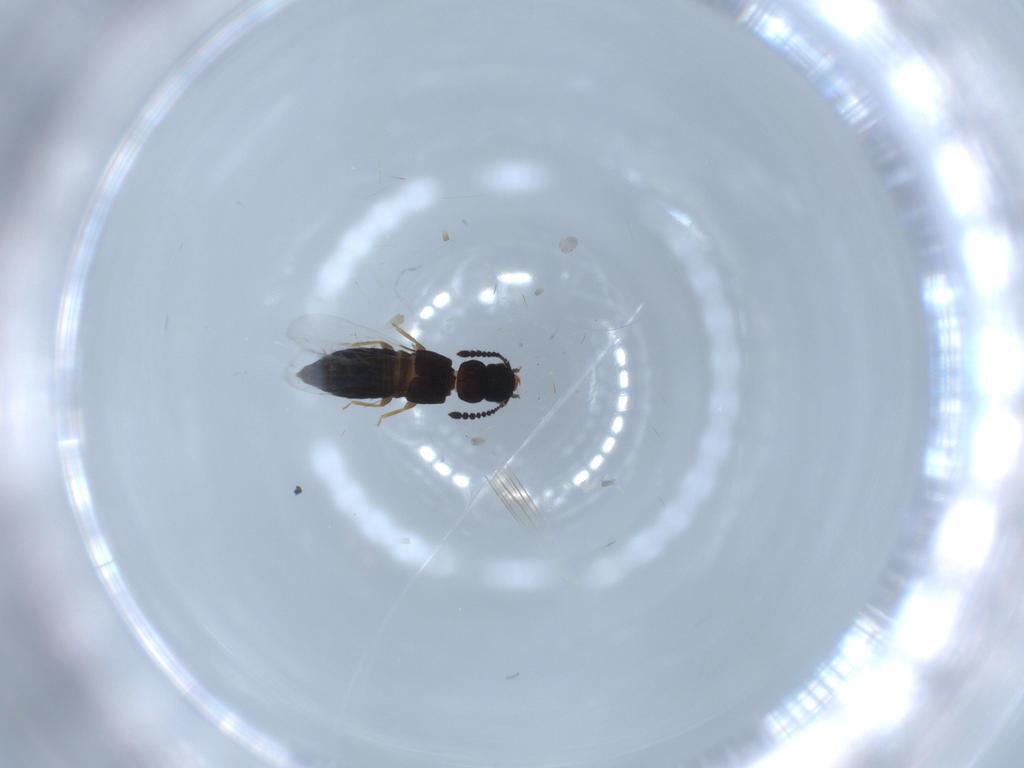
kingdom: Animalia
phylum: Arthropoda
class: Insecta
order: Coleoptera
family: Staphylinidae
